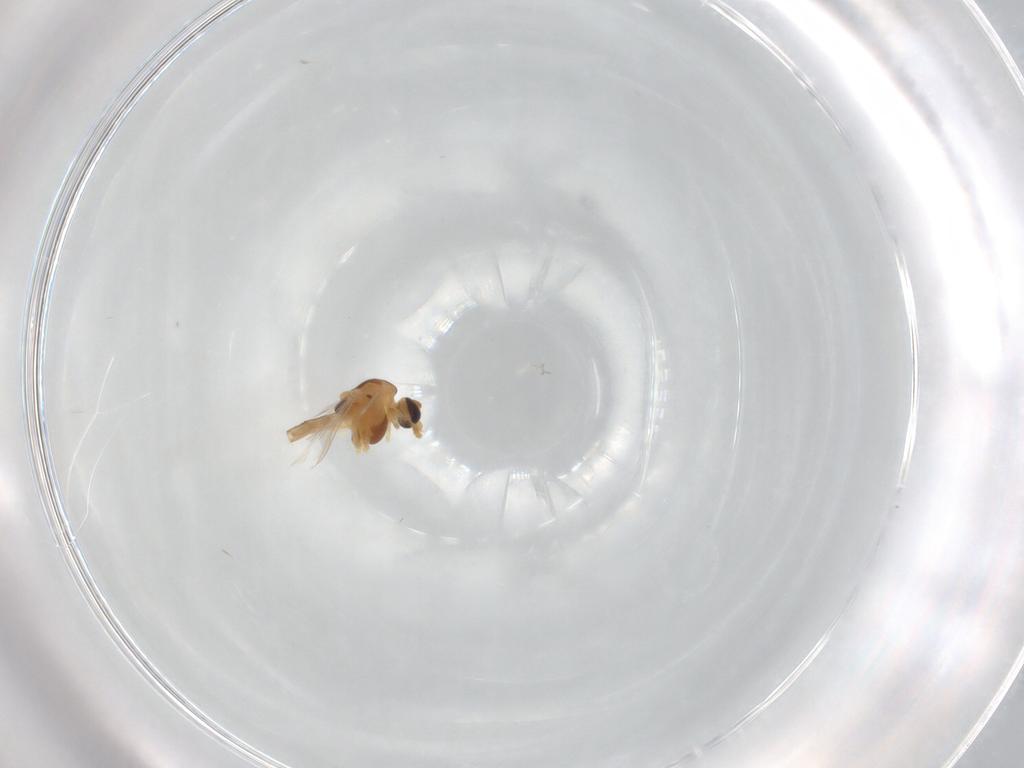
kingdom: Animalia
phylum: Arthropoda
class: Insecta
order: Diptera
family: Chironomidae
